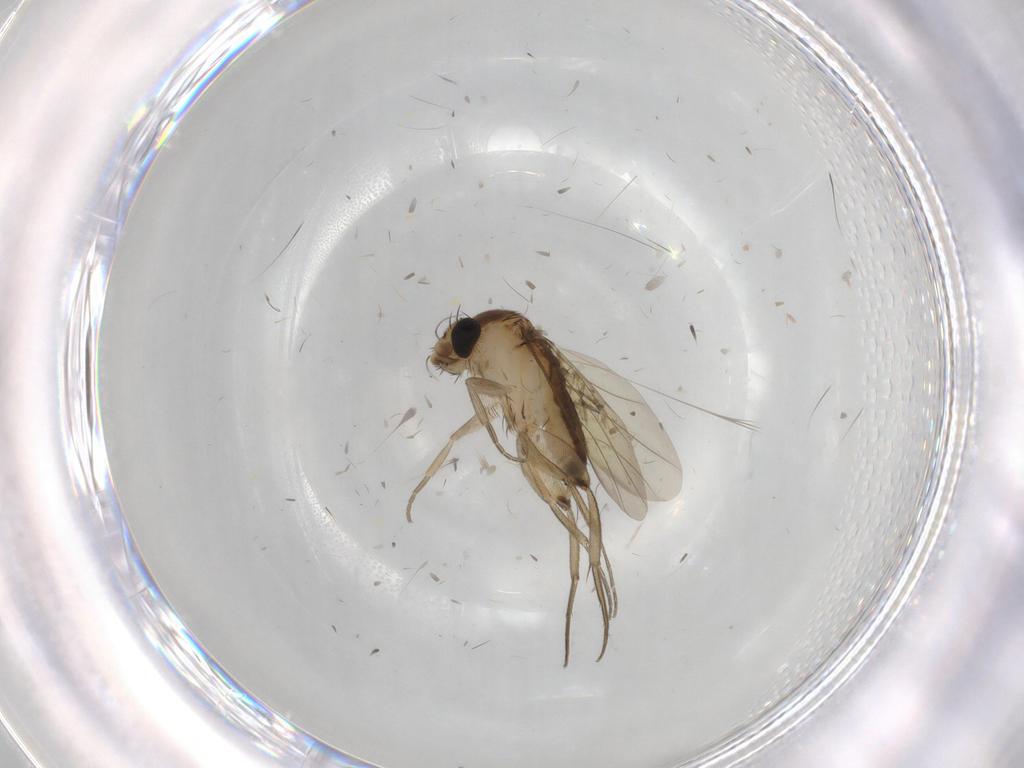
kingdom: Animalia
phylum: Arthropoda
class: Insecta
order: Diptera
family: Phoridae
